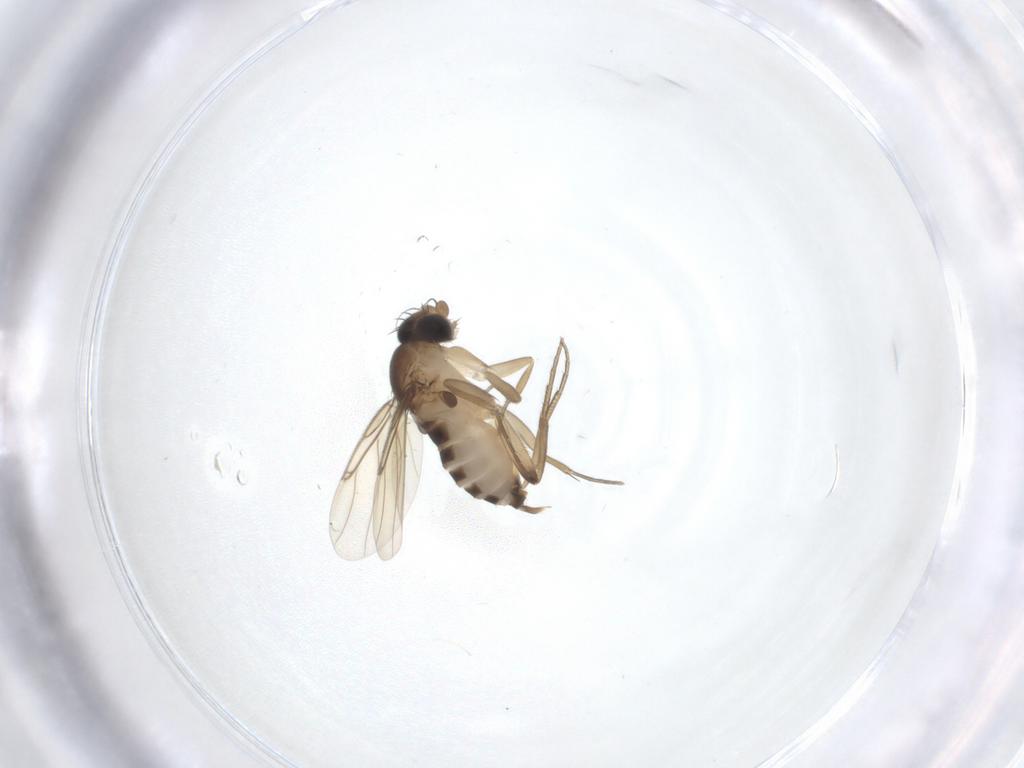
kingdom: Animalia
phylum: Arthropoda
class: Insecta
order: Diptera
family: Phoridae
